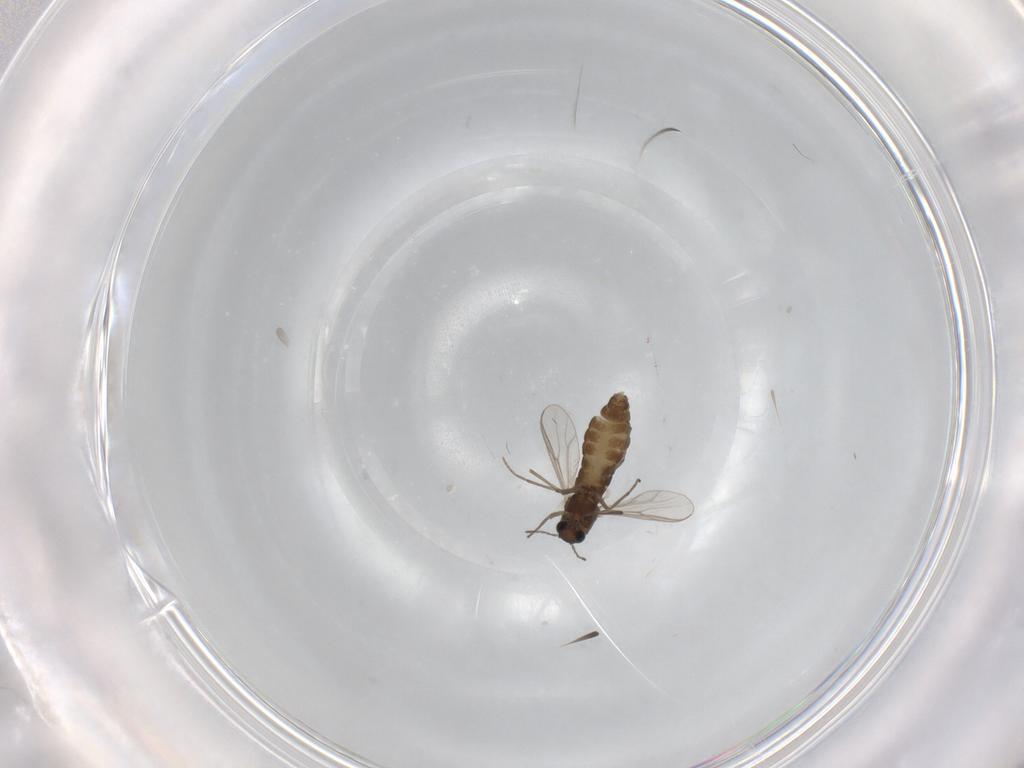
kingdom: Animalia
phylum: Arthropoda
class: Insecta
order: Diptera
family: Chironomidae
